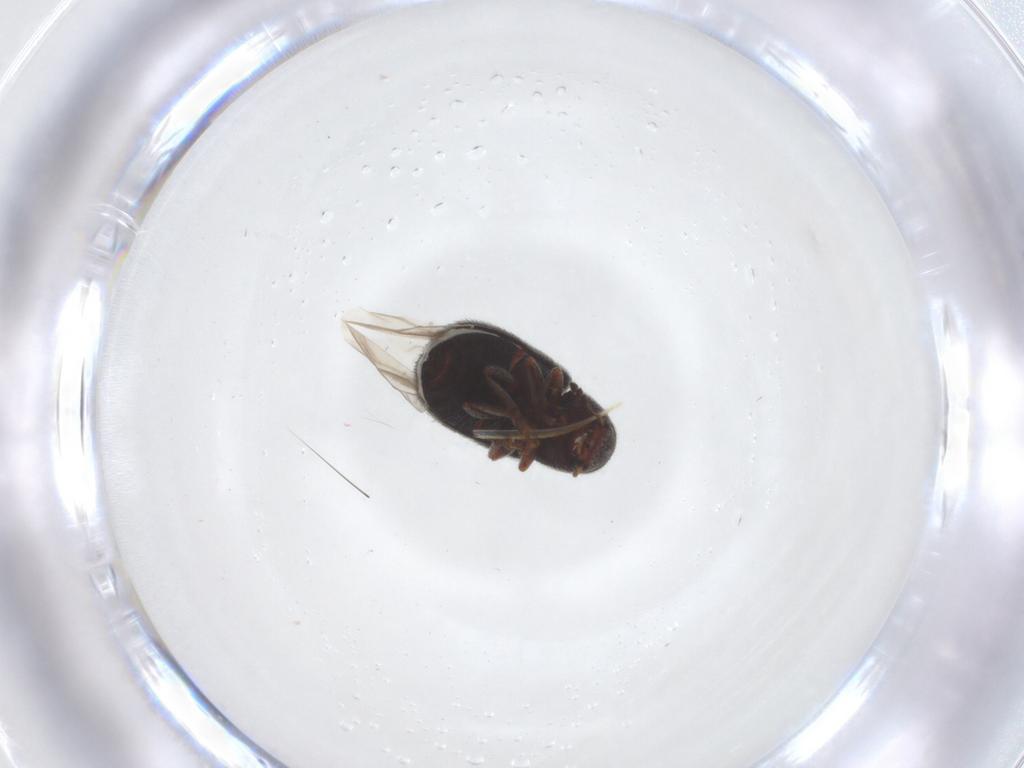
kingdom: Animalia
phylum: Arthropoda
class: Insecta
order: Coleoptera
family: Anthribidae
